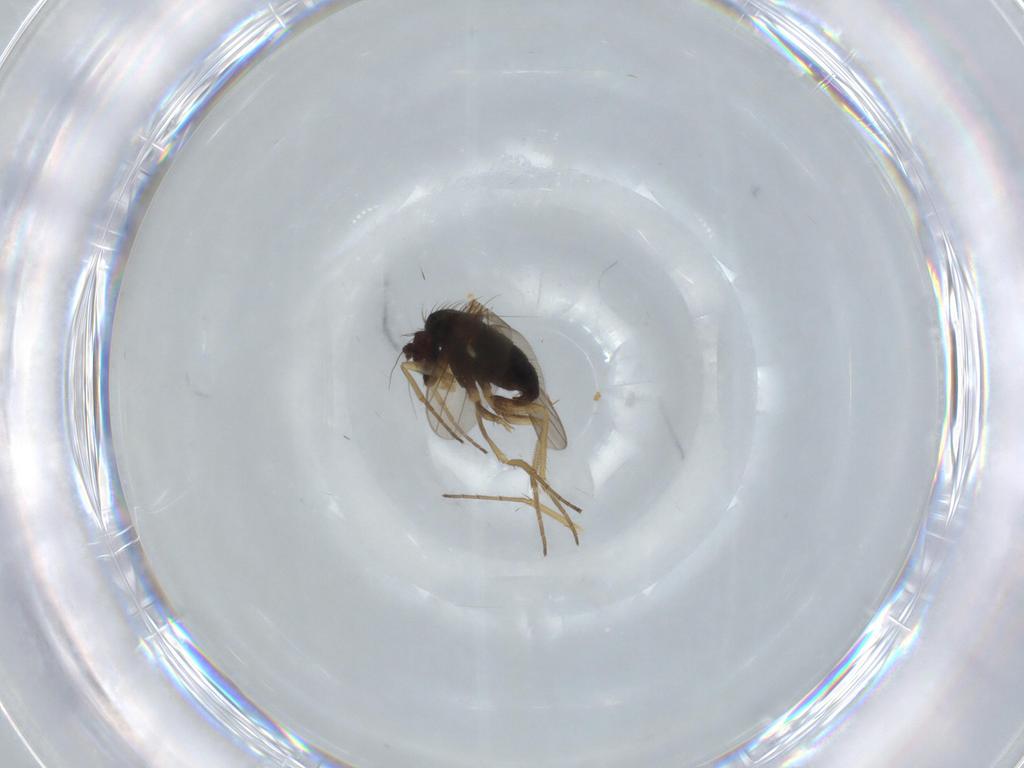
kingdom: Animalia
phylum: Arthropoda
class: Insecta
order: Diptera
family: Dolichopodidae
